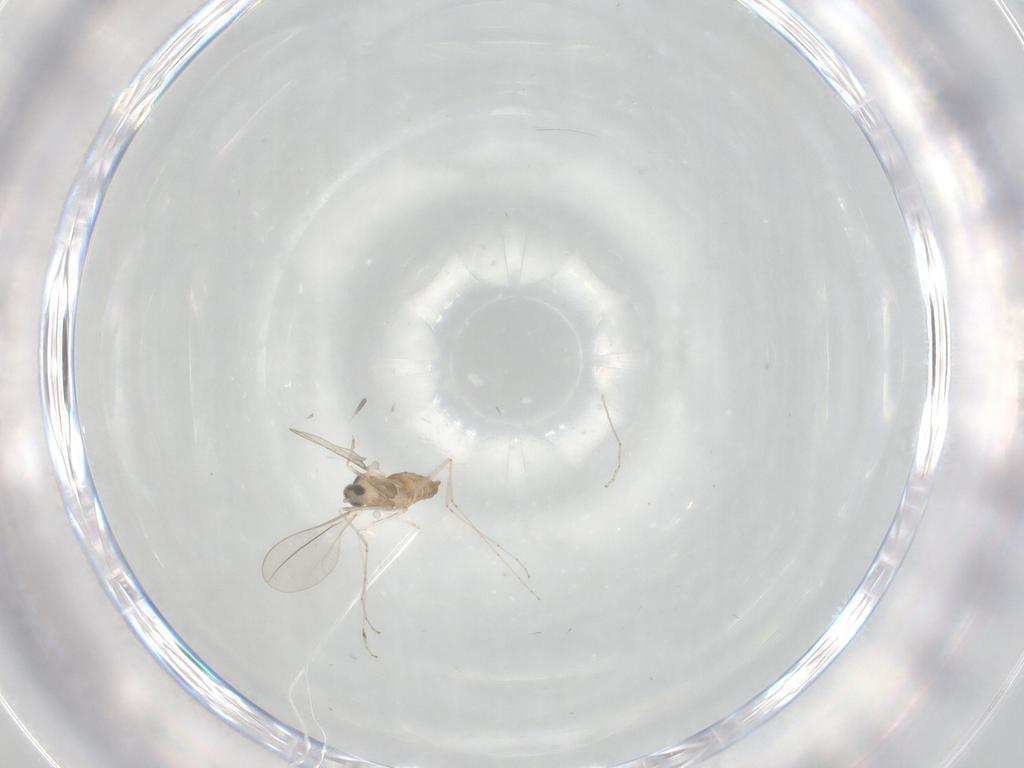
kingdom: Animalia
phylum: Arthropoda
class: Insecta
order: Diptera
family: Cecidomyiidae
